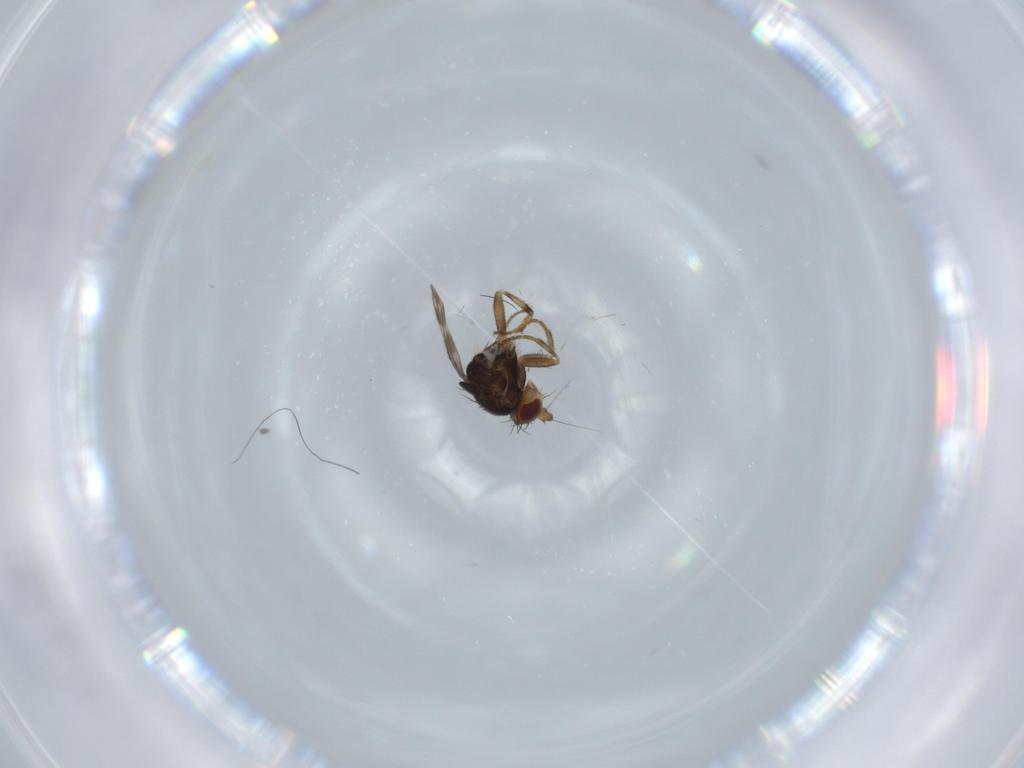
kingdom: Animalia
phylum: Arthropoda
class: Insecta
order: Diptera
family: Sphaeroceridae
